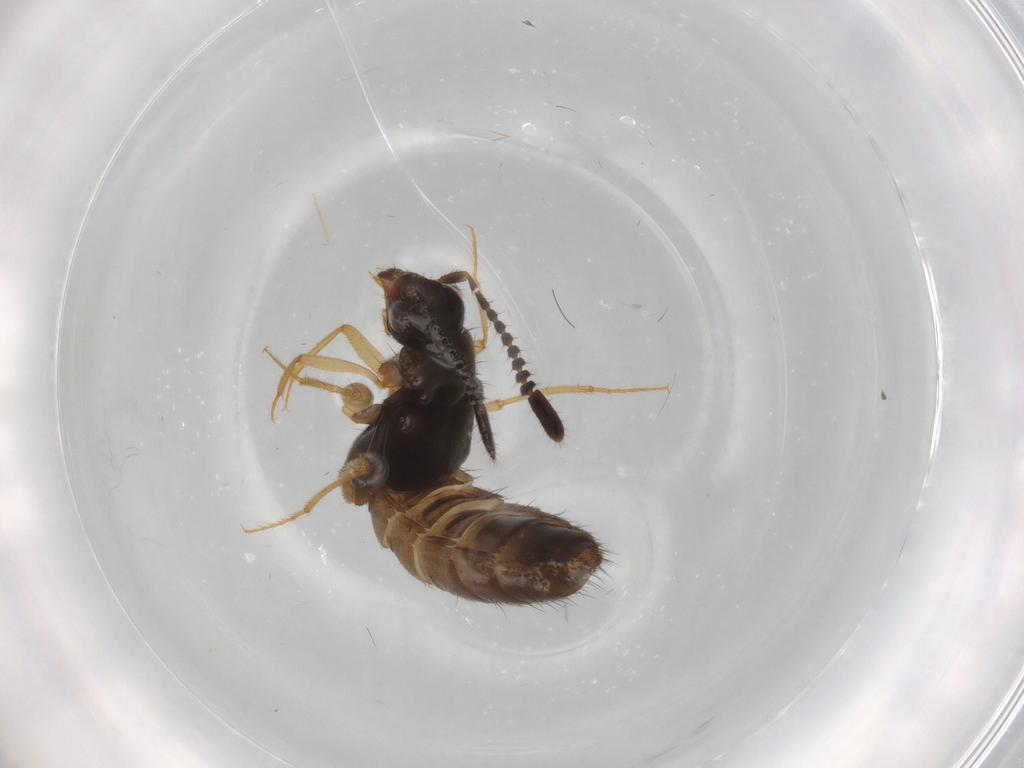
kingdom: Animalia
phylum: Arthropoda
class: Insecta
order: Coleoptera
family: Staphylinidae
